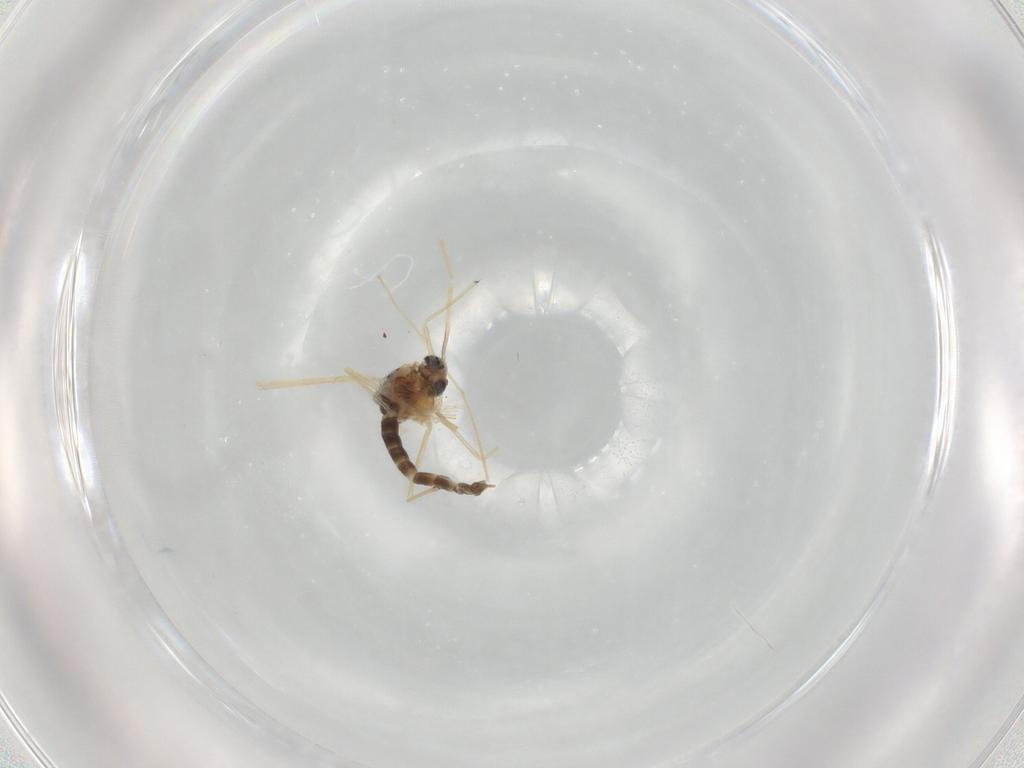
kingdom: Animalia
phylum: Arthropoda
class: Insecta
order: Diptera
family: Chironomidae
